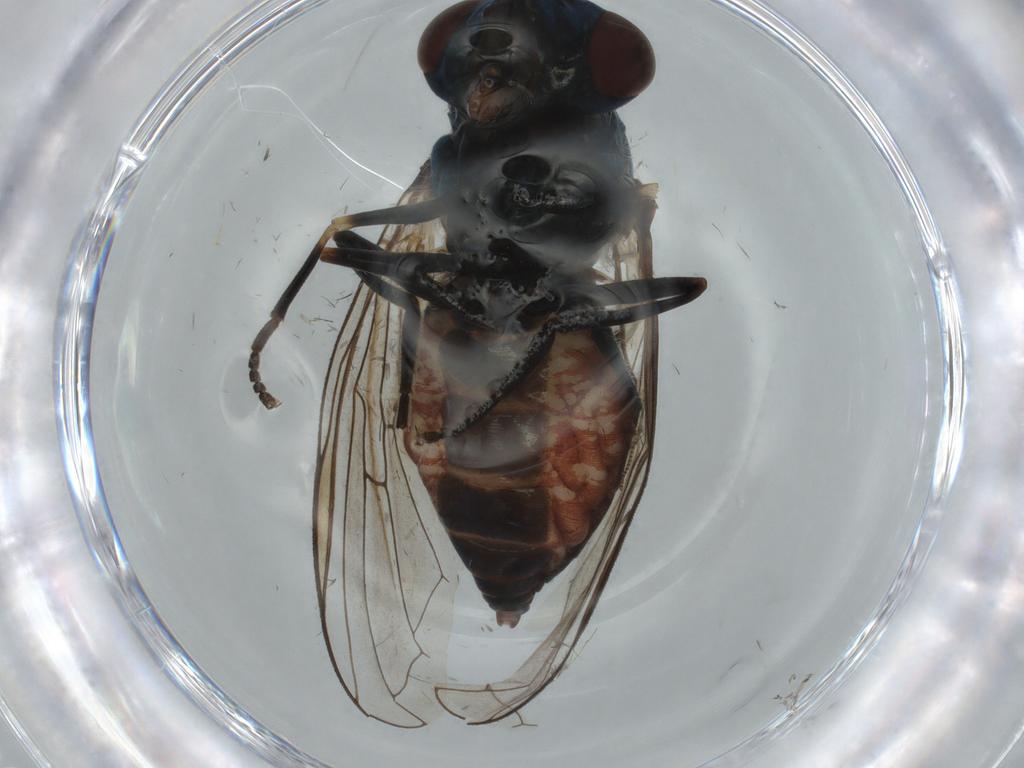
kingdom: Animalia
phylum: Arthropoda
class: Insecta
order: Diptera
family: Syrphidae
